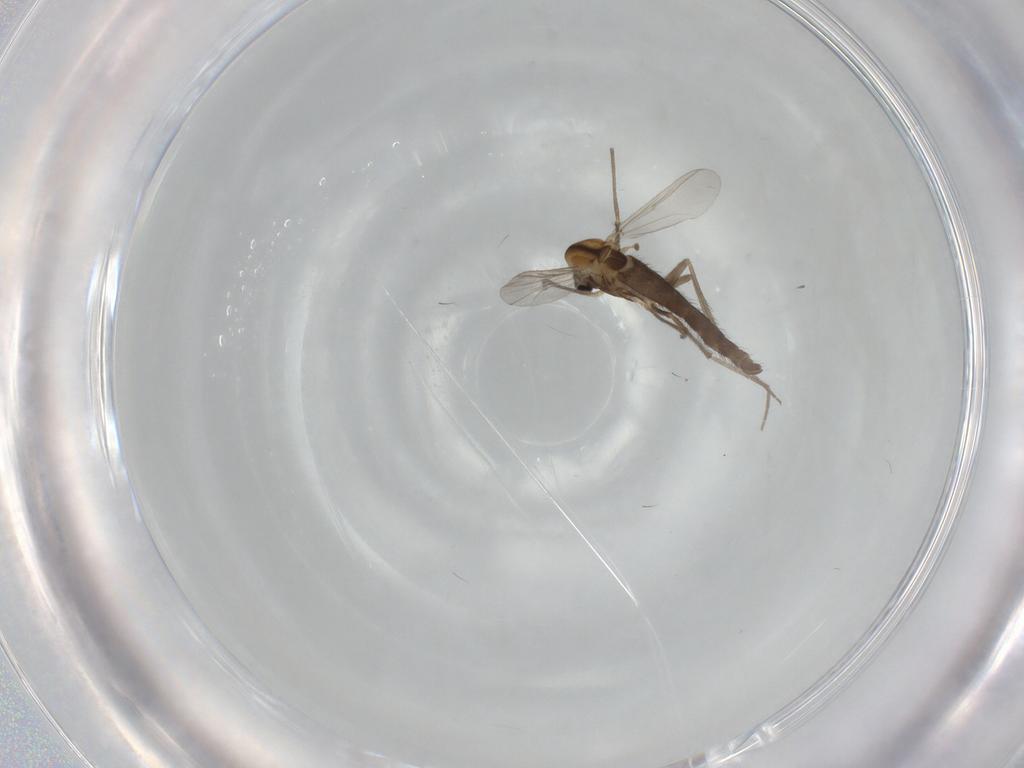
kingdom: Animalia
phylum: Arthropoda
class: Insecta
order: Diptera
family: Chironomidae
